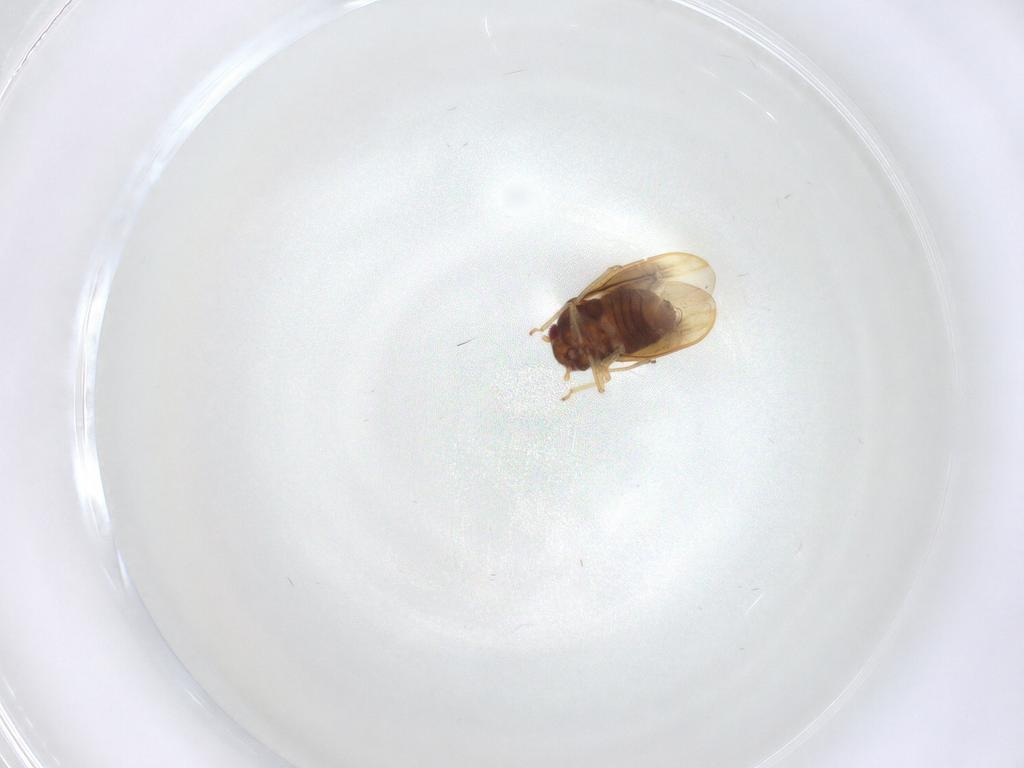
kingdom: Animalia
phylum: Arthropoda
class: Insecta
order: Hemiptera
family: Schizopteridae
